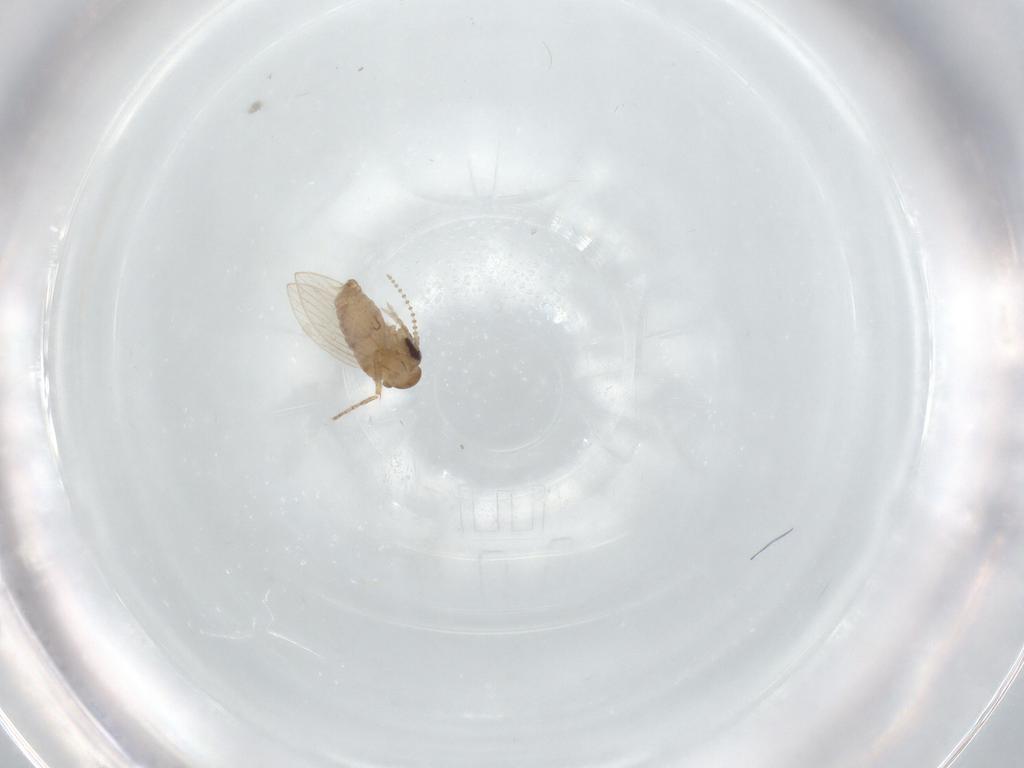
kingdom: Animalia
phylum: Arthropoda
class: Insecta
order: Diptera
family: Psychodidae
